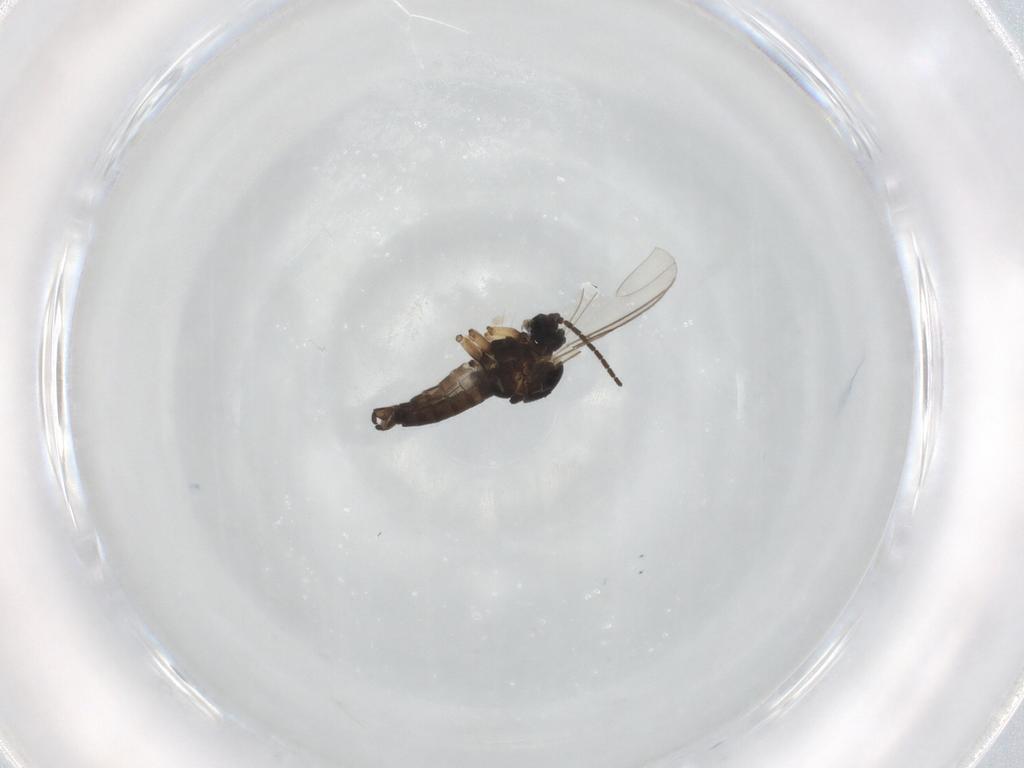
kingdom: Animalia
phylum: Arthropoda
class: Insecta
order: Diptera
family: Sciaridae
